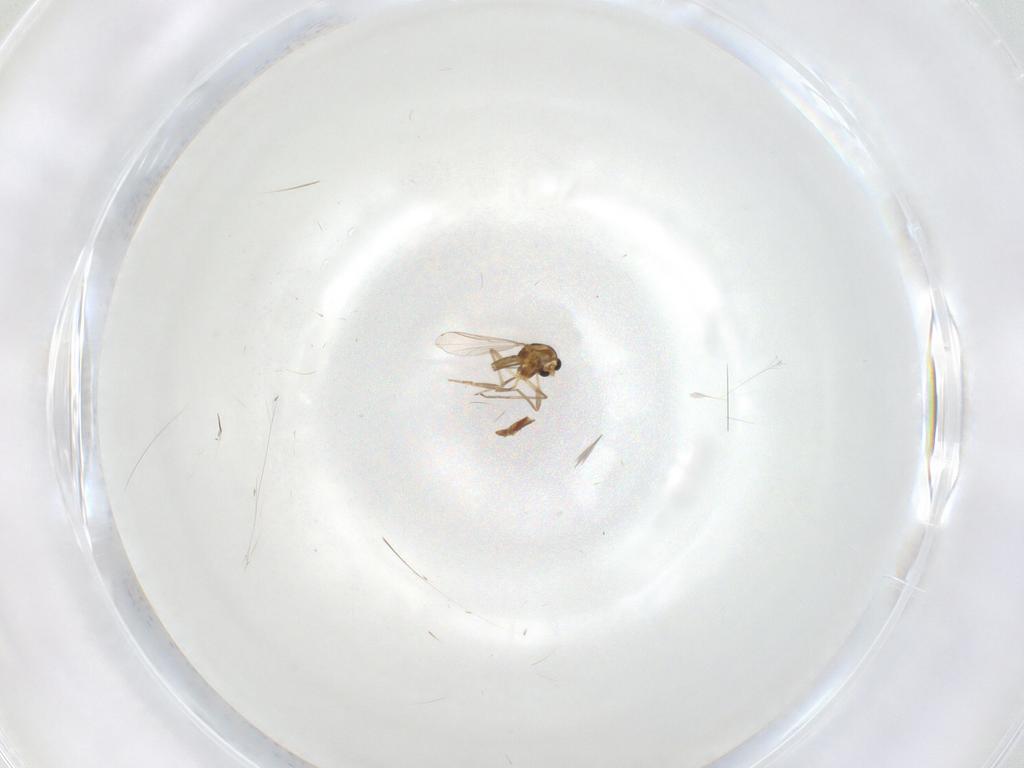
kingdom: Animalia
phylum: Arthropoda
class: Insecta
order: Diptera
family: Chironomidae
